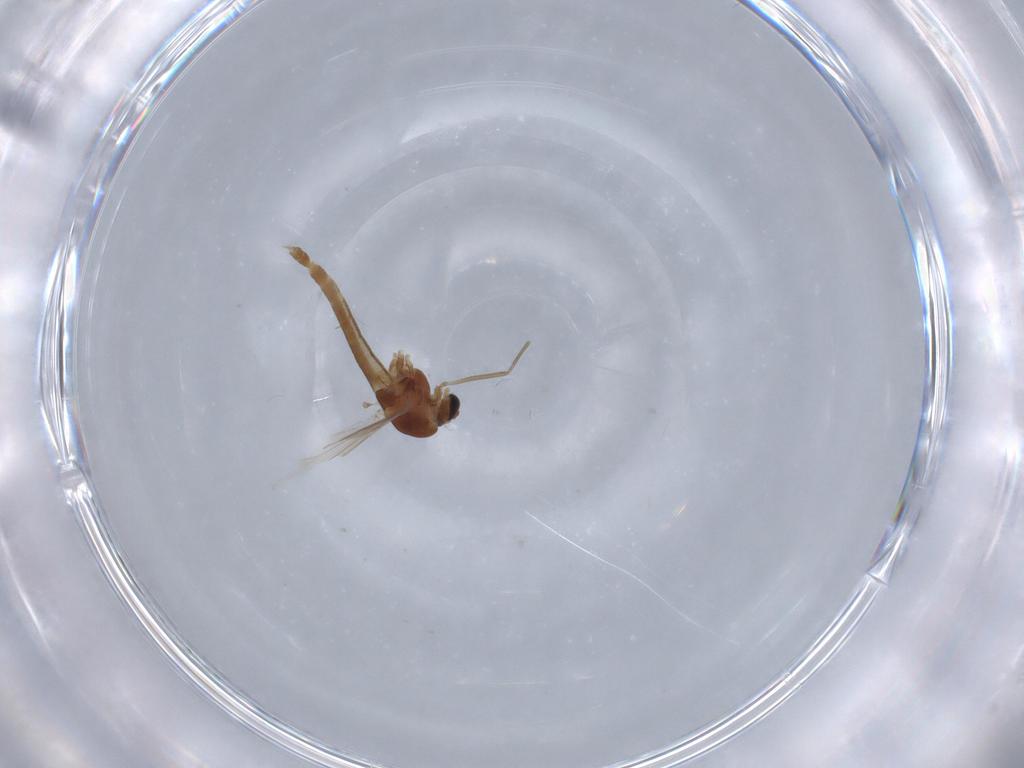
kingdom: Animalia
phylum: Arthropoda
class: Insecta
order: Diptera
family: Chironomidae
